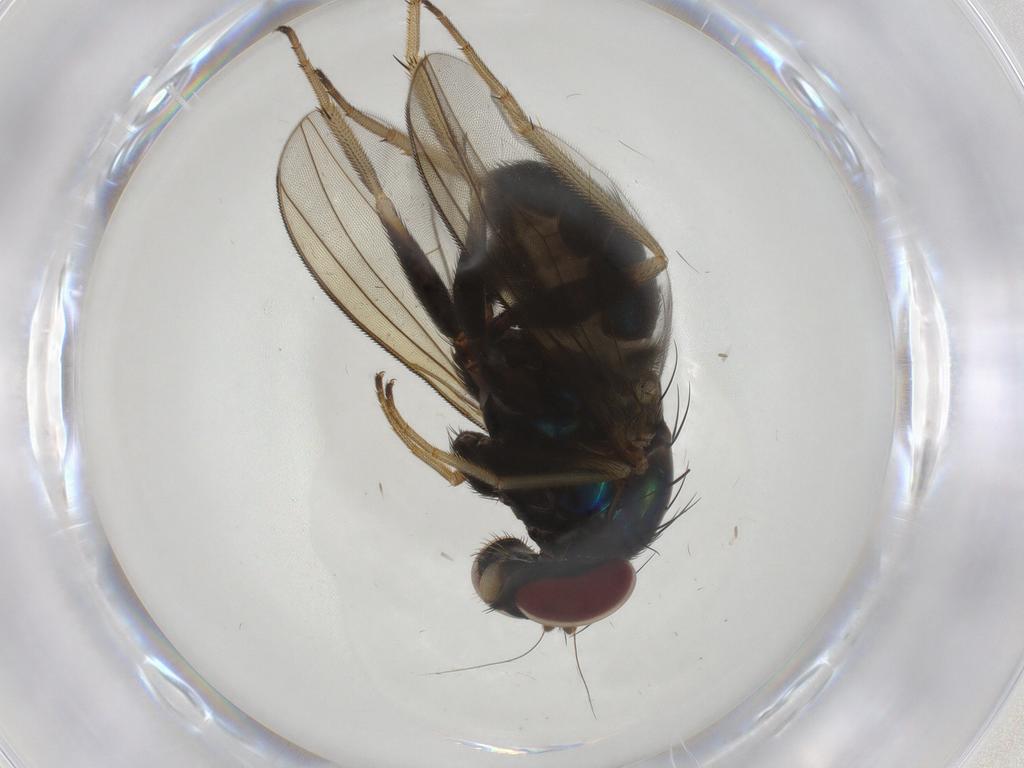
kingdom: Animalia
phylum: Arthropoda
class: Insecta
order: Diptera
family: Dolichopodidae
